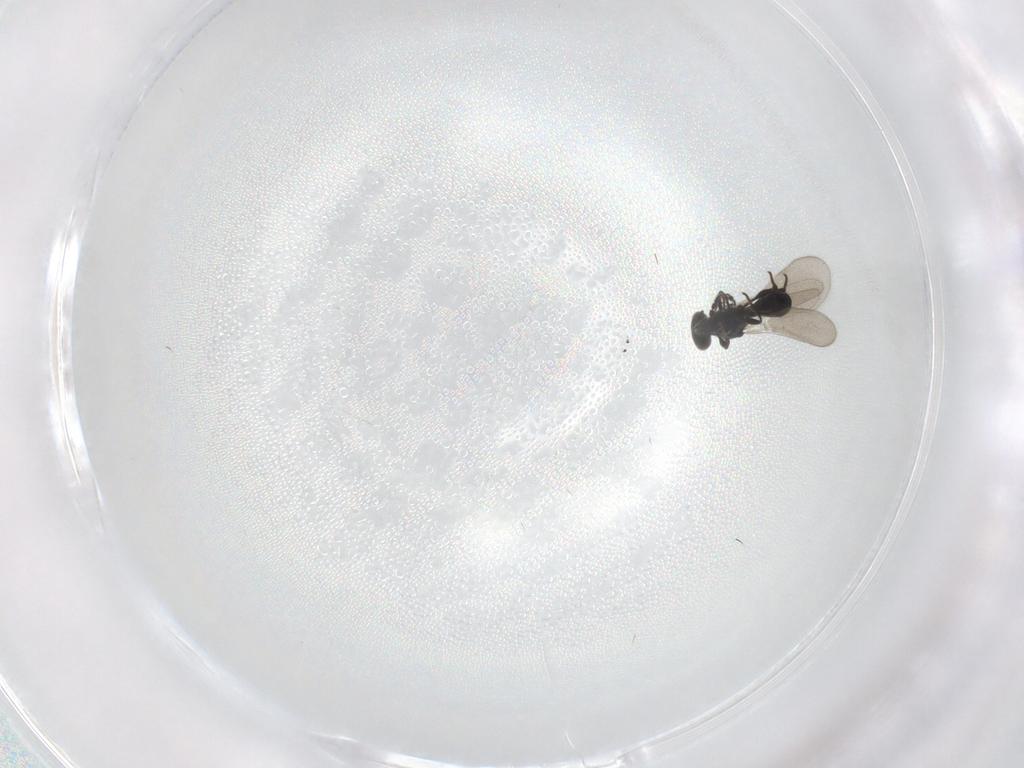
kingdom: Animalia
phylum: Arthropoda
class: Insecta
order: Hymenoptera
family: Platygastridae
